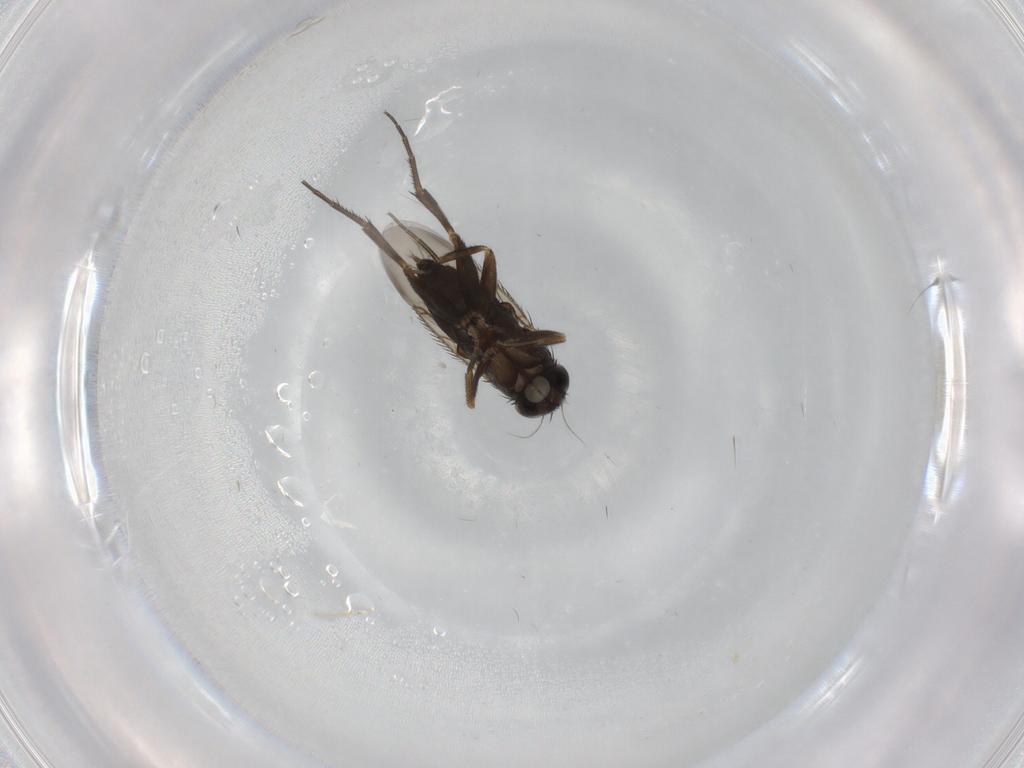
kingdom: Animalia
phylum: Arthropoda
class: Insecta
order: Diptera
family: Phoridae
